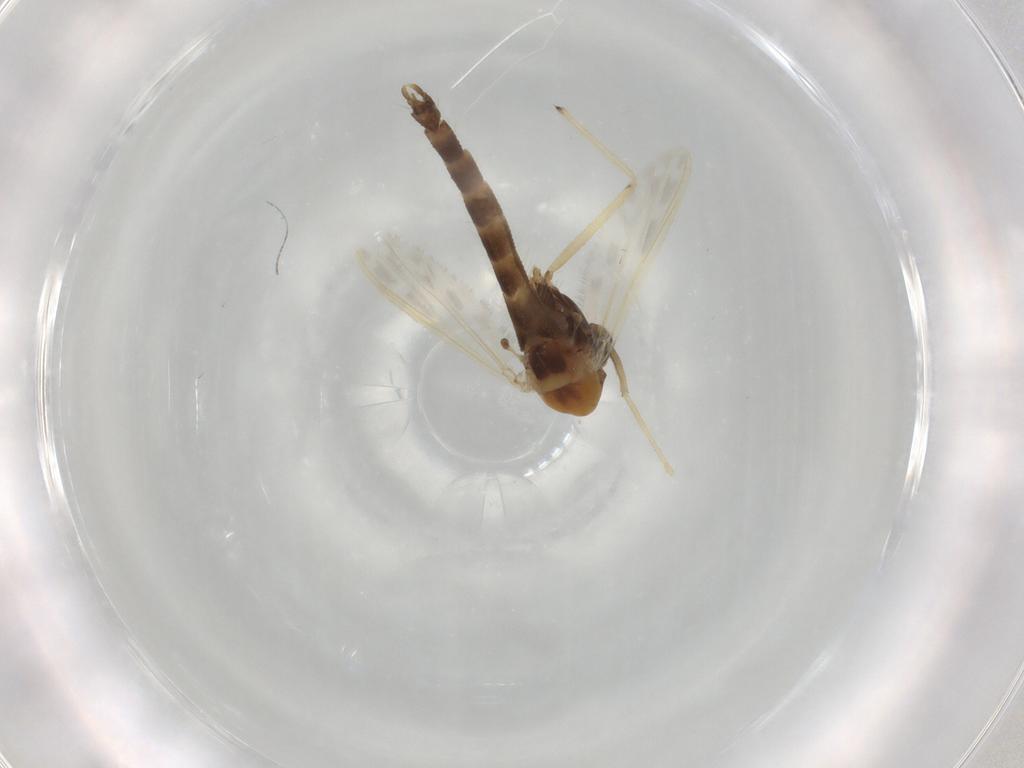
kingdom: Animalia
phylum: Arthropoda
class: Insecta
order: Diptera
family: Chironomidae
